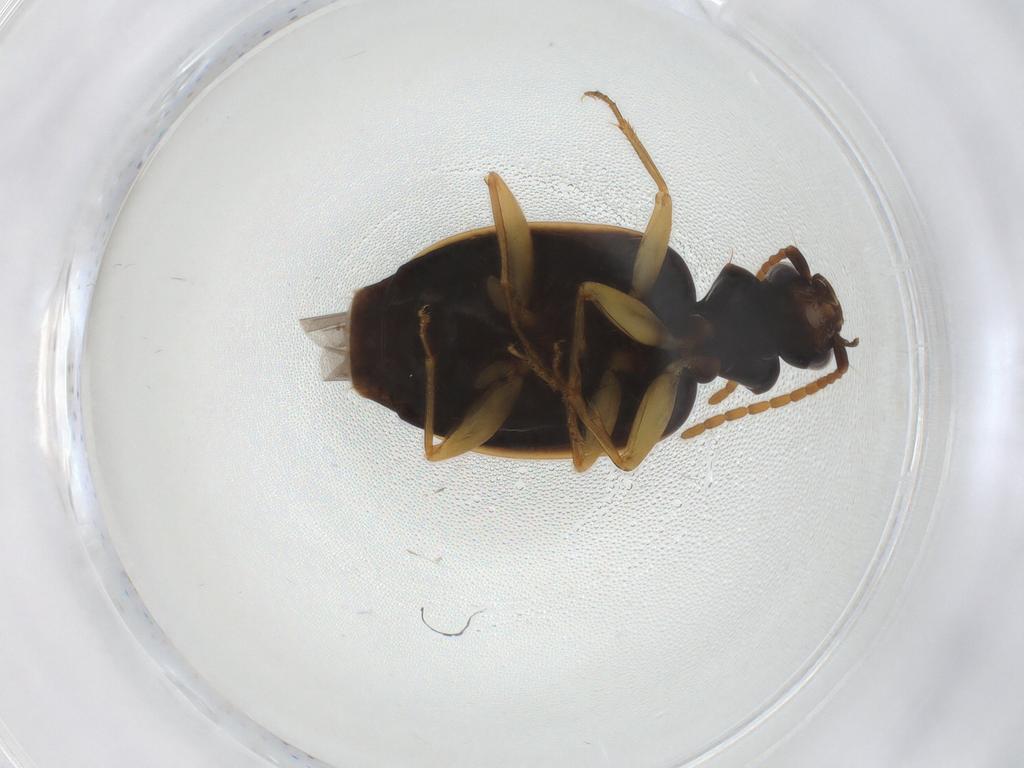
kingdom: Animalia
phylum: Arthropoda
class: Insecta
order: Coleoptera
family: Carabidae
